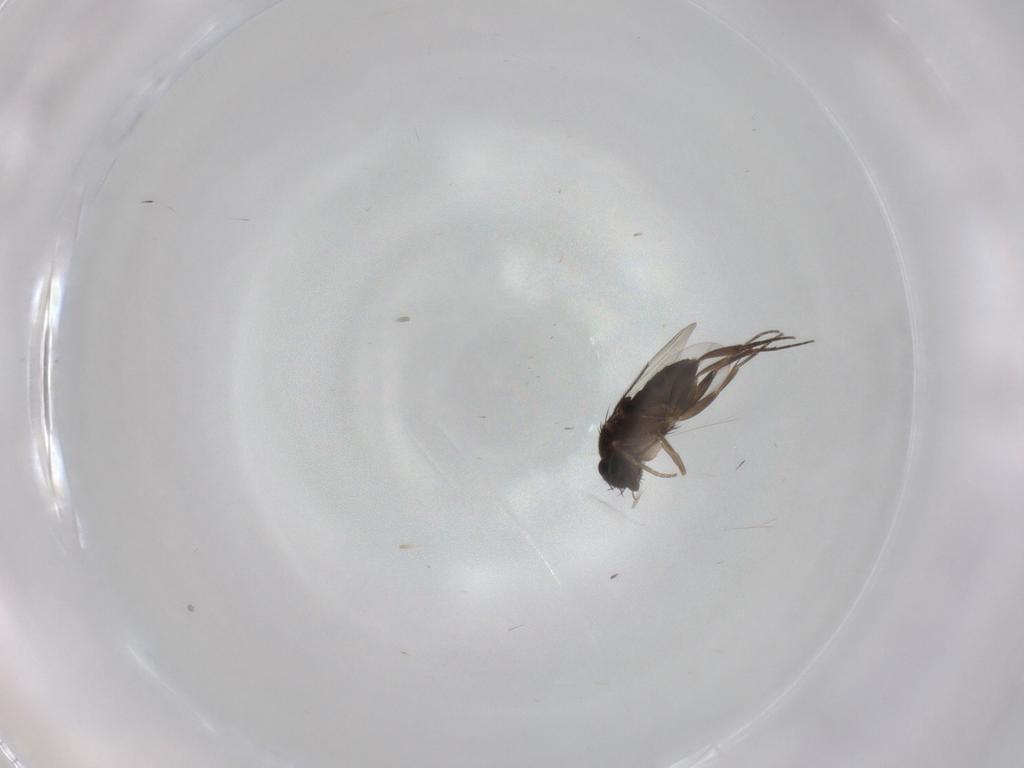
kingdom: Animalia
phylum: Arthropoda
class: Insecta
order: Diptera
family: Phoridae
